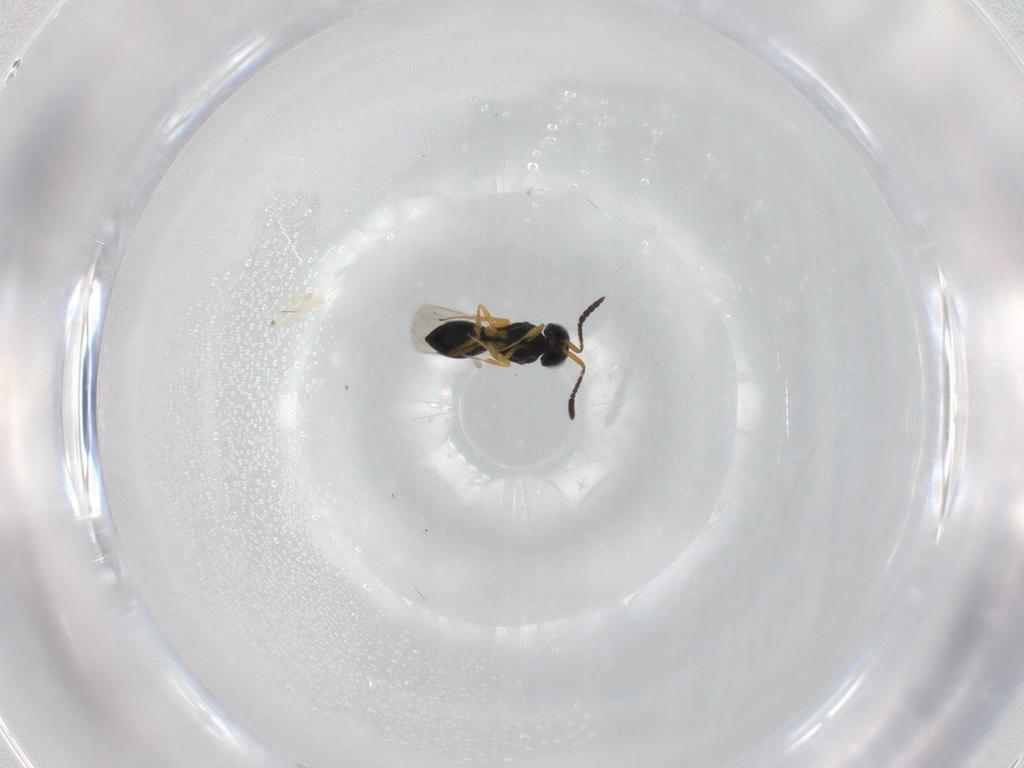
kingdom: Animalia
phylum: Arthropoda
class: Insecta
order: Hymenoptera
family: Scelionidae
